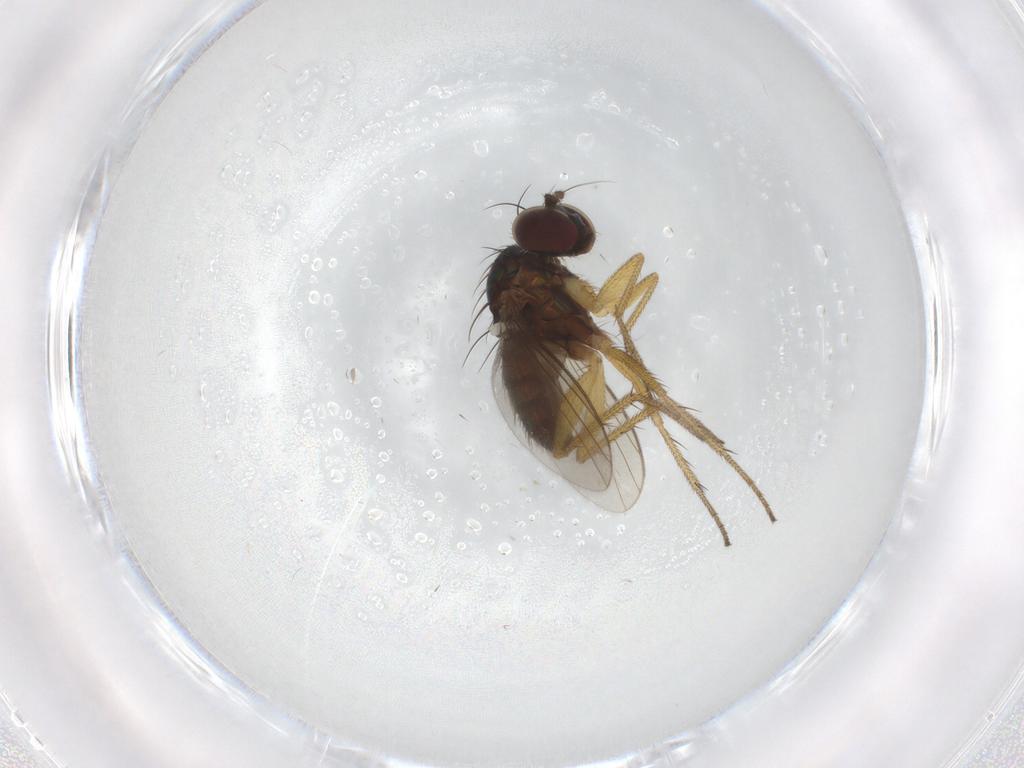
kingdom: Animalia
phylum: Arthropoda
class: Insecta
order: Diptera
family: Dolichopodidae
